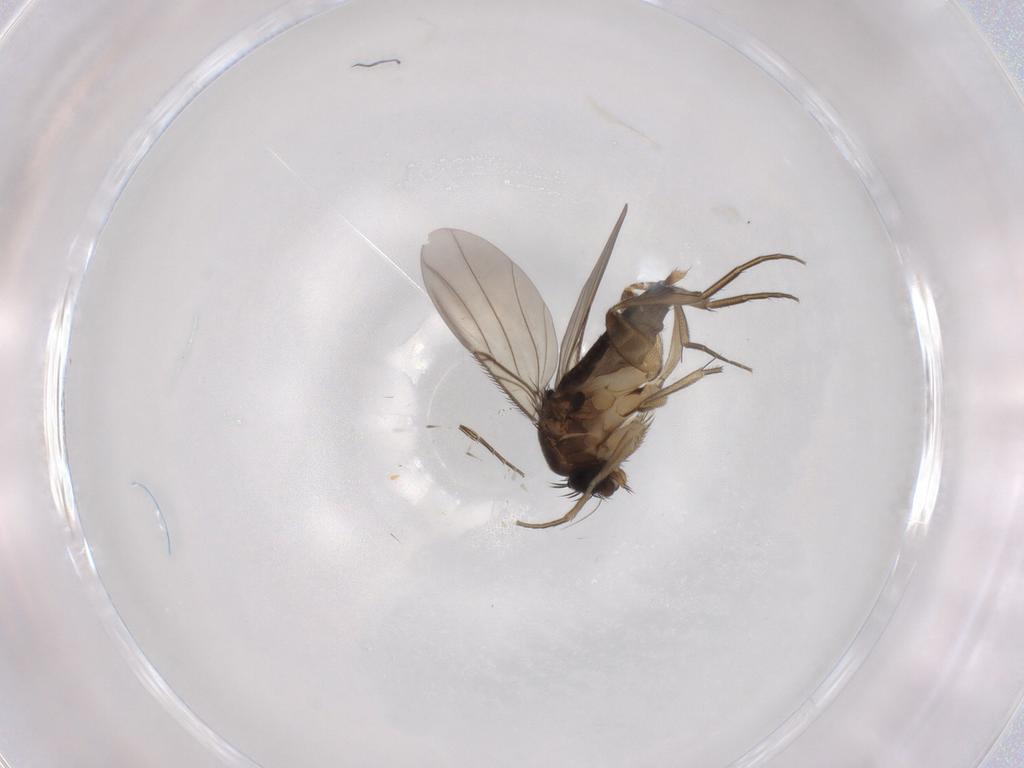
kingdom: Animalia
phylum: Arthropoda
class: Insecta
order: Diptera
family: Phoridae
